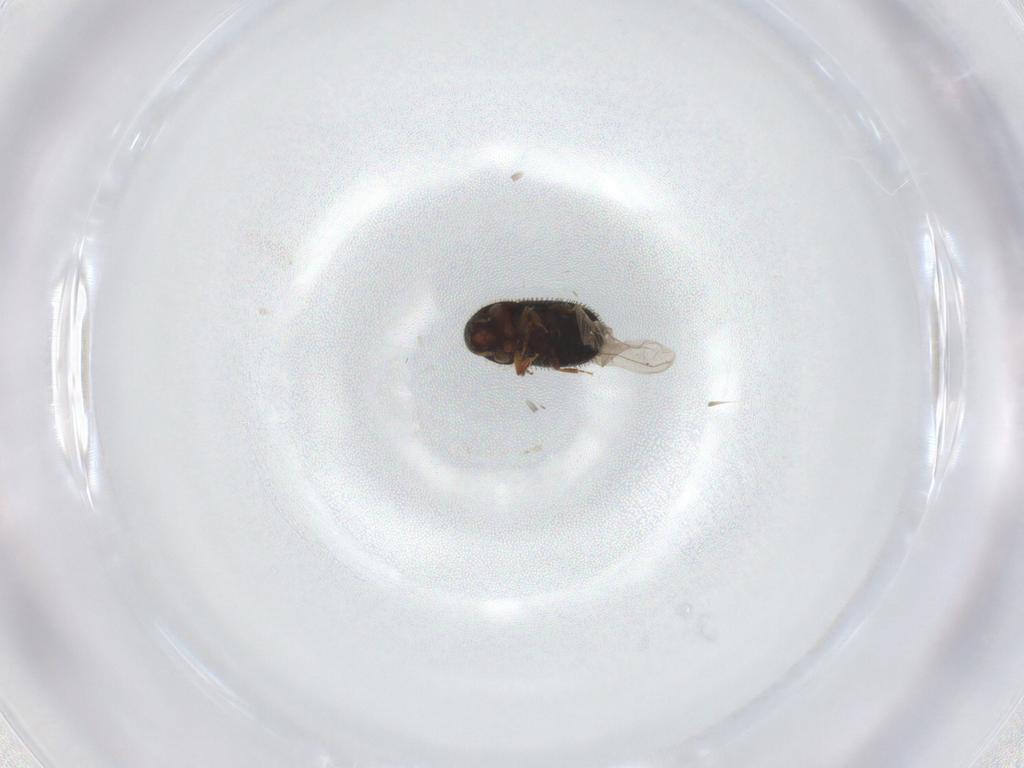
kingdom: Animalia
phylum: Arthropoda
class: Insecta
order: Coleoptera
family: Curculionidae
